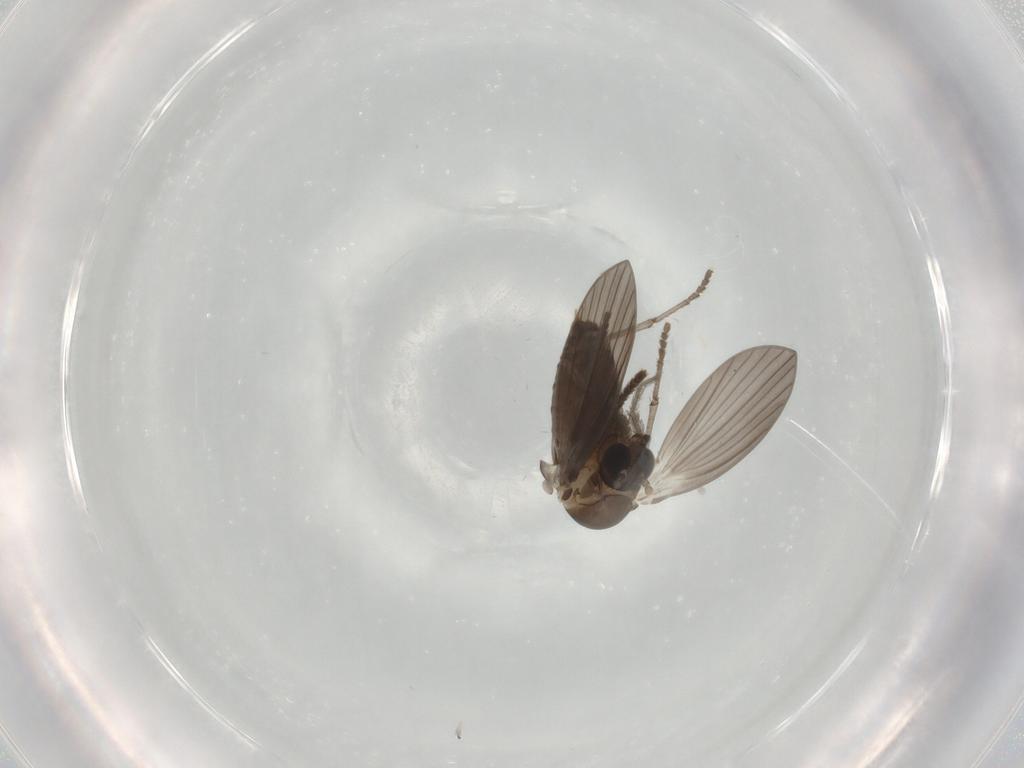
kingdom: Animalia
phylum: Arthropoda
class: Insecta
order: Diptera
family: Psychodidae
